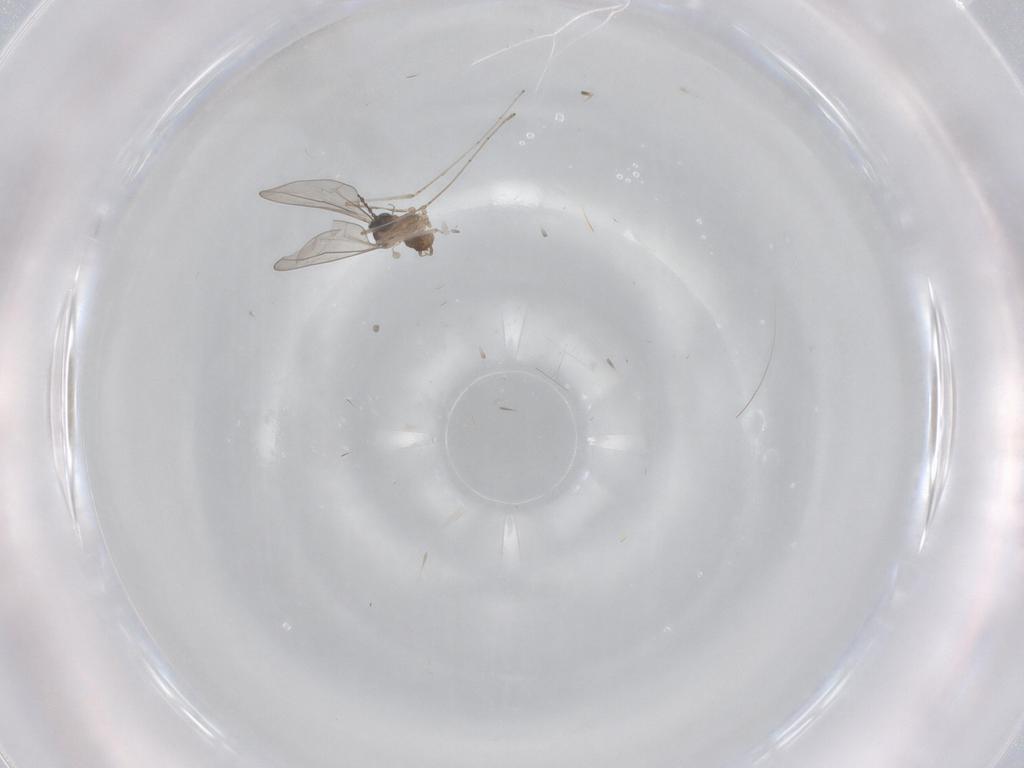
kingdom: Animalia
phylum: Arthropoda
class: Insecta
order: Diptera
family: Cecidomyiidae
